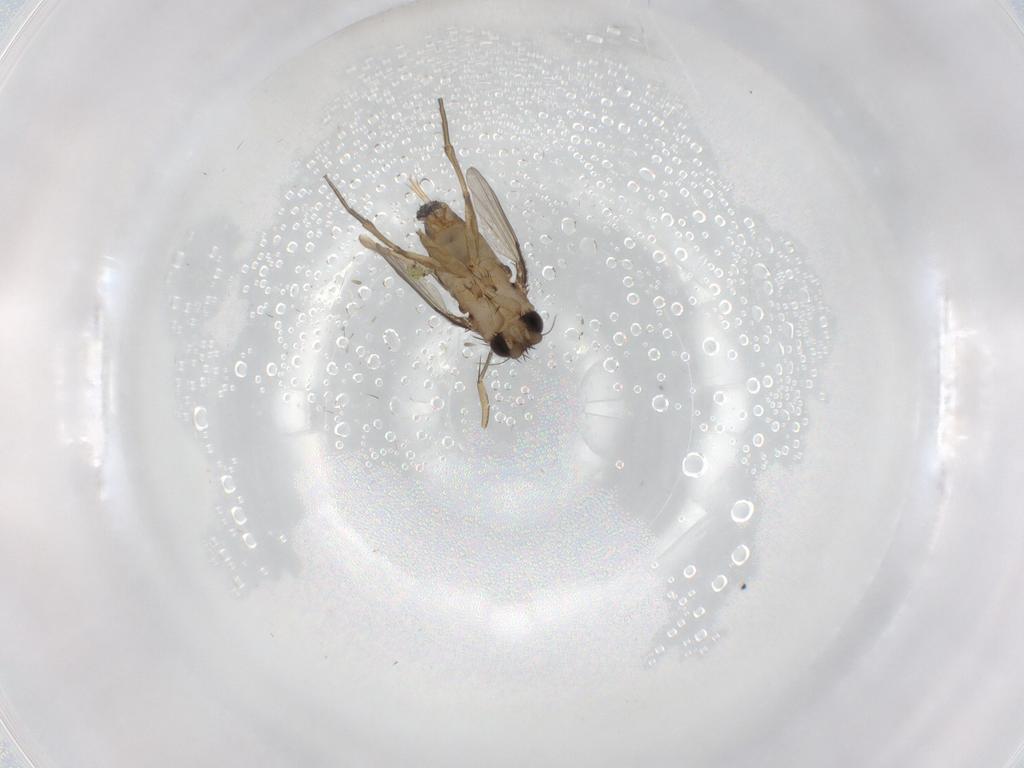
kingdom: Animalia
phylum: Arthropoda
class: Insecta
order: Diptera
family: Phoridae
